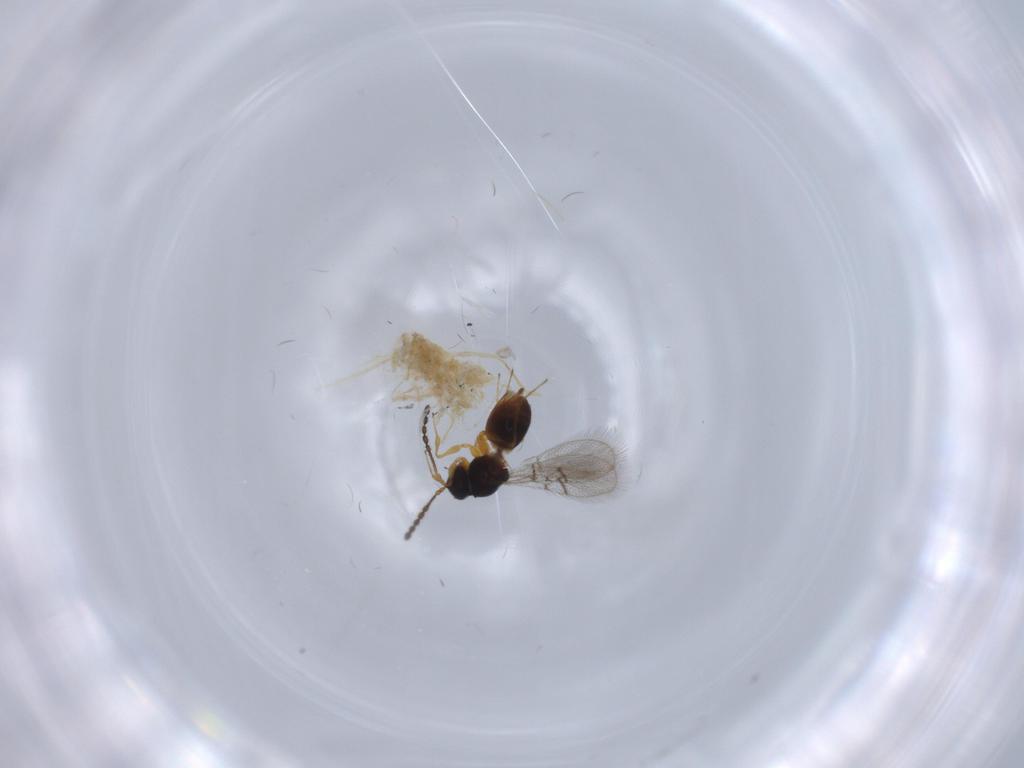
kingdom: Animalia
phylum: Arthropoda
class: Insecta
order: Hymenoptera
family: Figitidae
